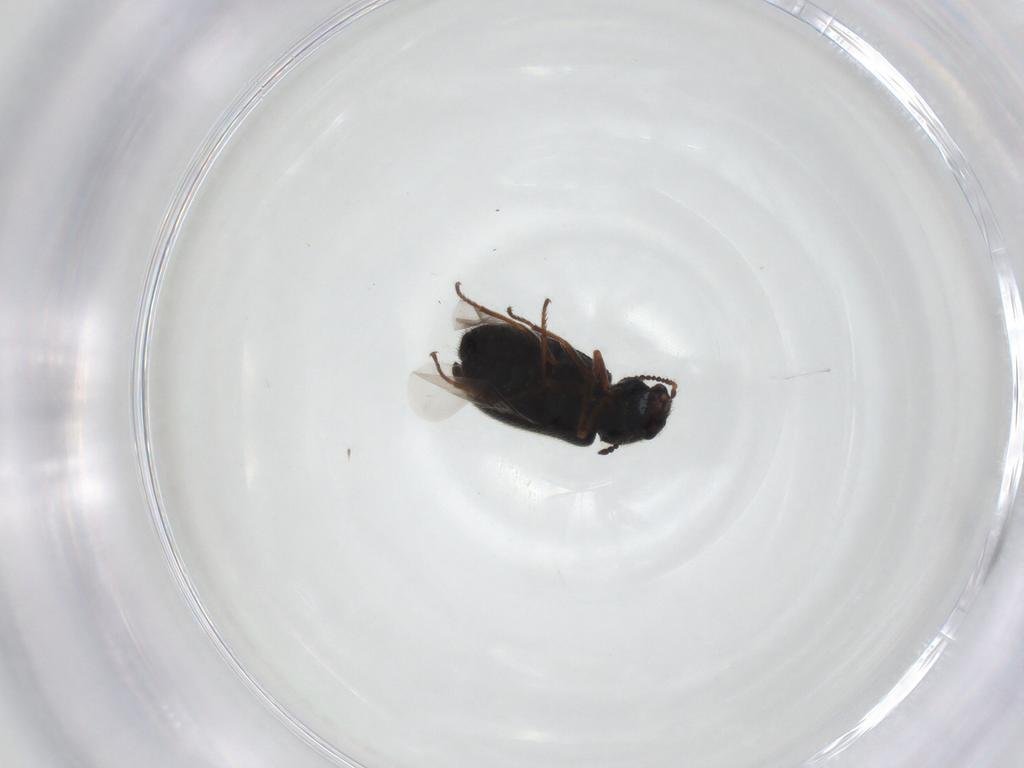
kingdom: Animalia
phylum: Arthropoda
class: Insecta
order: Coleoptera
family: Melyridae
